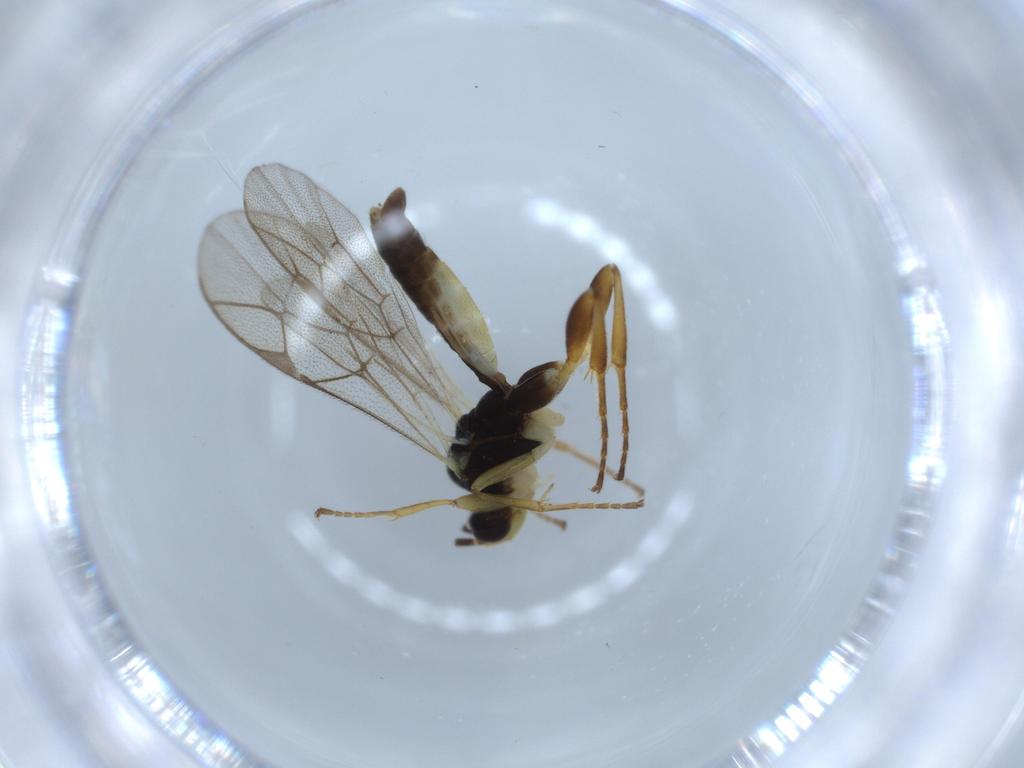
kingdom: Animalia
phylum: Arthropoda
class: Insecta
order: Hymenoptera
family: Ichneumonidae
